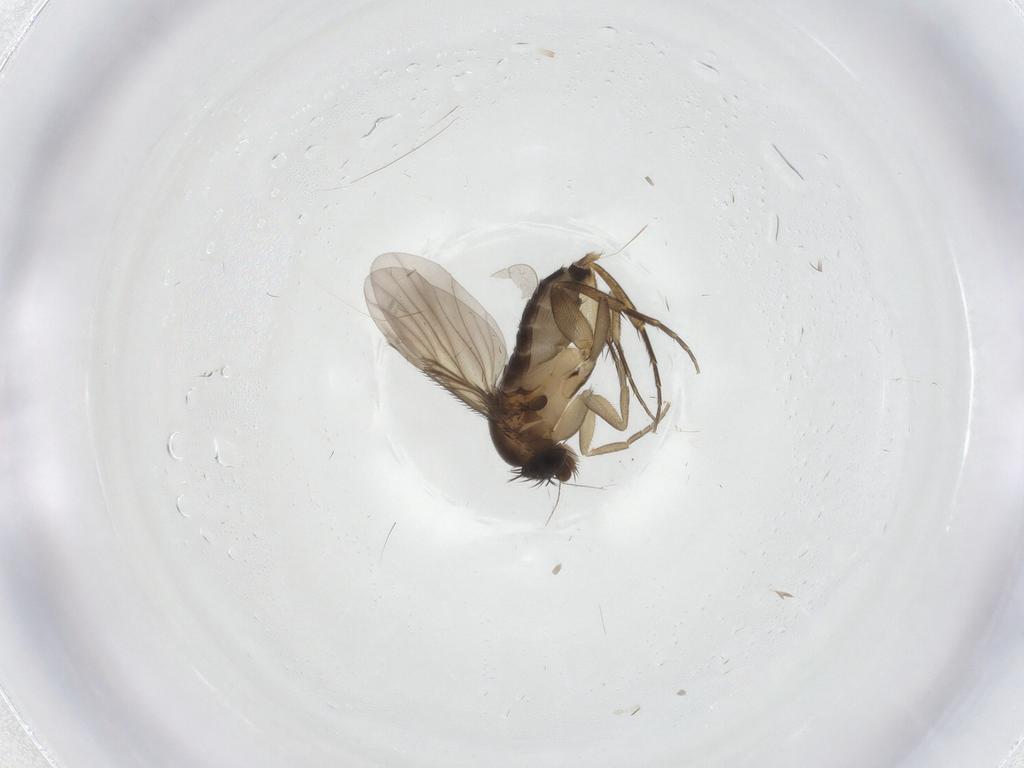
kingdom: Animalia
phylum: Arthropoda
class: Insecta
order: Diptera
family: Phoridae
